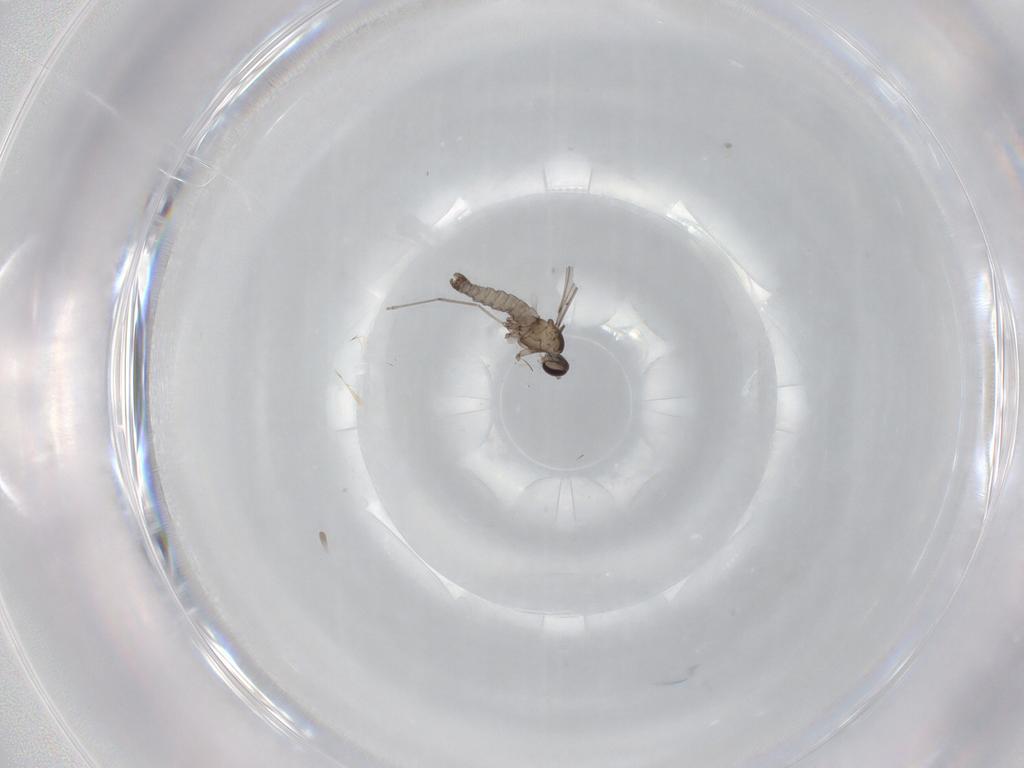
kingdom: Animalia
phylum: Arthropoda
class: Insecta
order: Diptera
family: Cecidomyiidae
